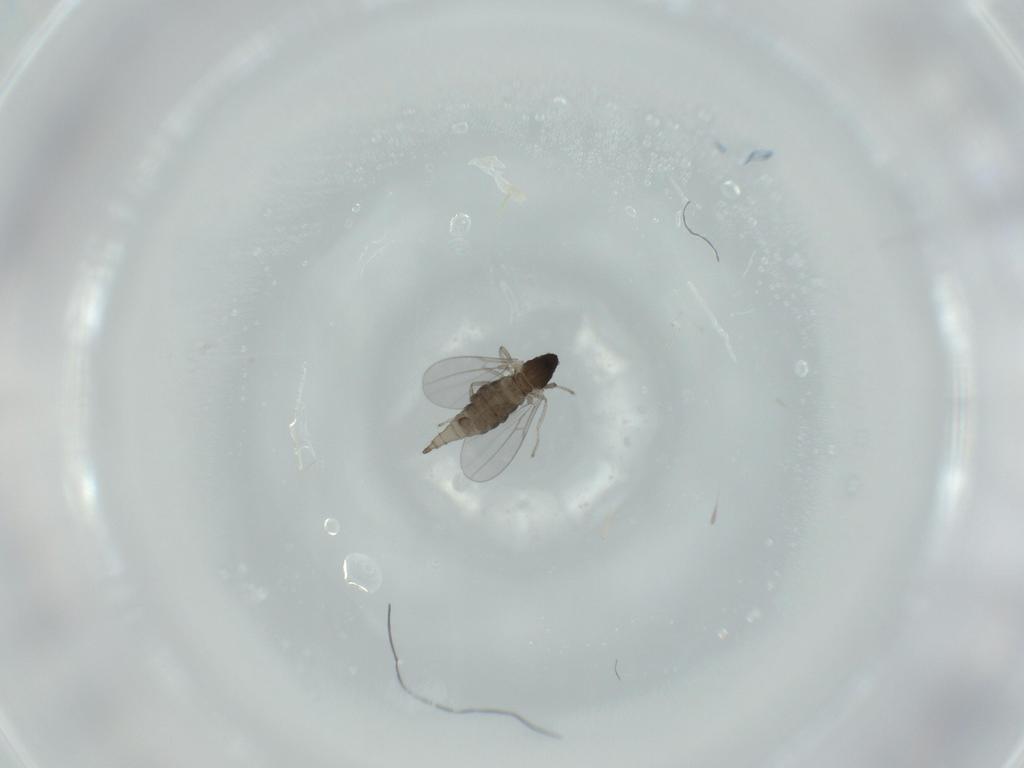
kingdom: Animalia
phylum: Arthropoda
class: Insecta
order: Diptera
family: Cecidomyiidae
